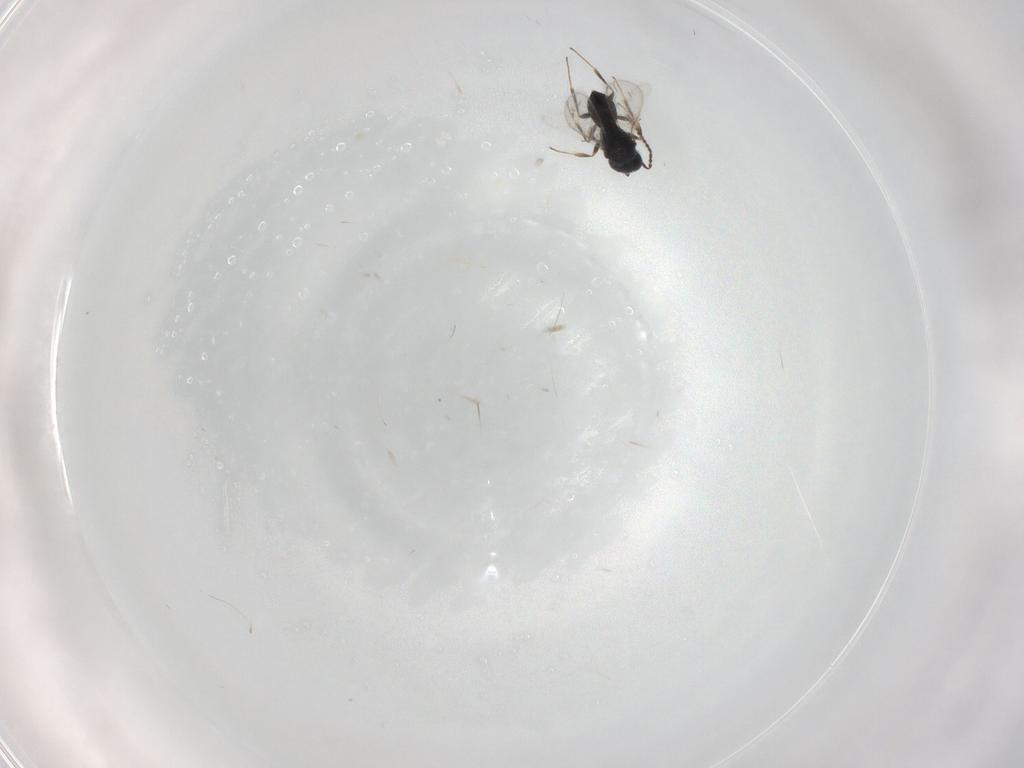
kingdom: Animalia
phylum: Arthropoda
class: Insecta
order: Hymenoptera
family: Scelionidae
